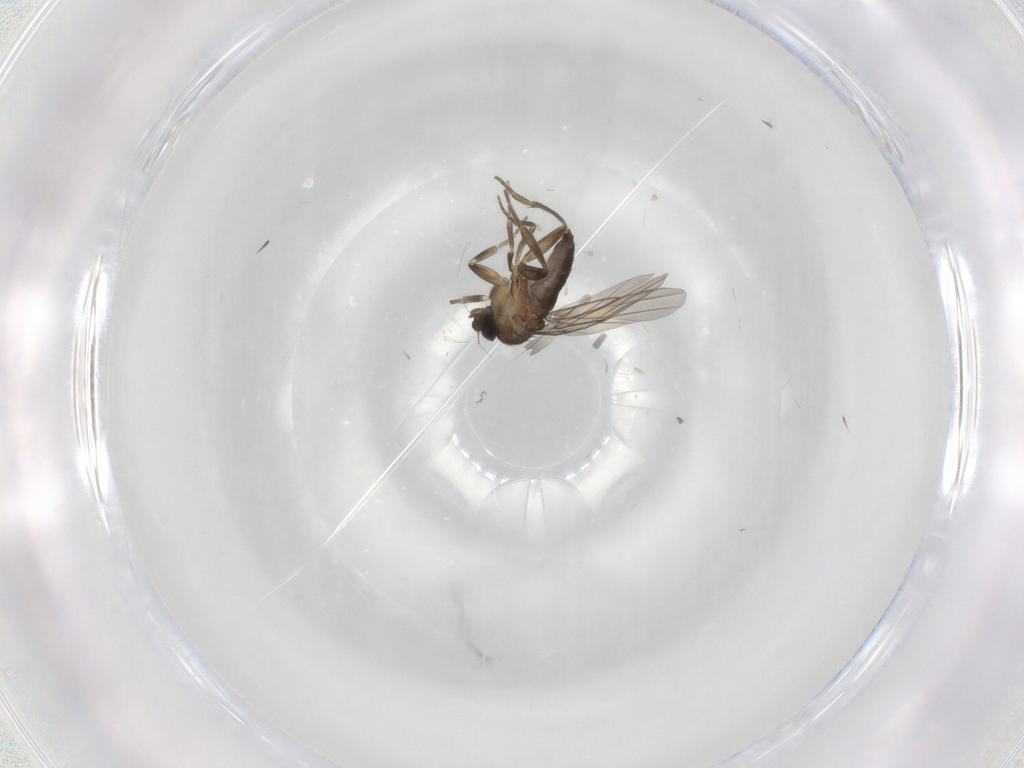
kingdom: Animalia
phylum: Arthropoda
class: Insecta
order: Diptera
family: Phoridae
